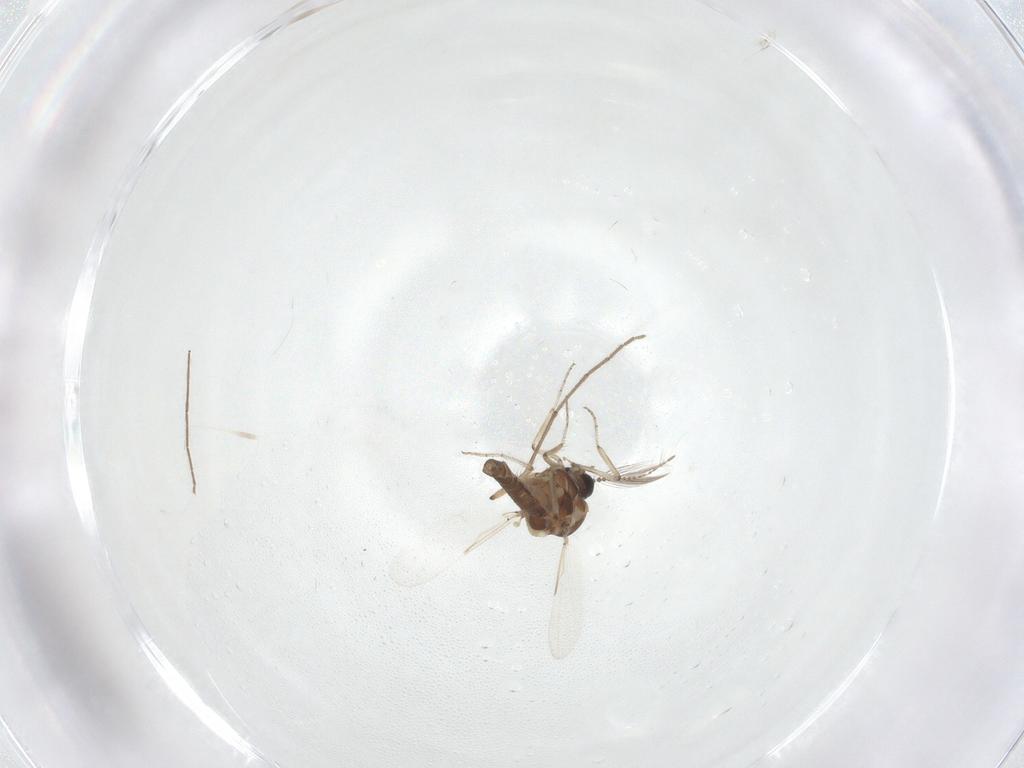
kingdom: Animalia
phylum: Arthropoda
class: Insecta
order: Diptera
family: Ceratopogonidae
